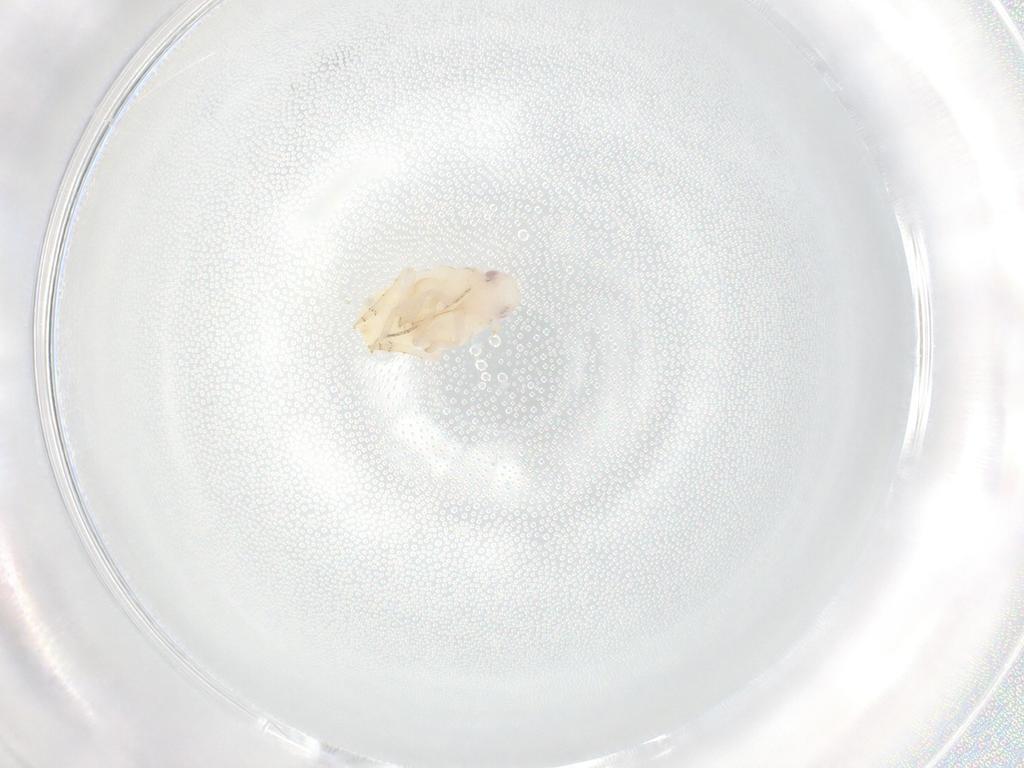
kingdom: Animalia
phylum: Arthropoda
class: Insecta
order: Hemiptera
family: Flatidae
